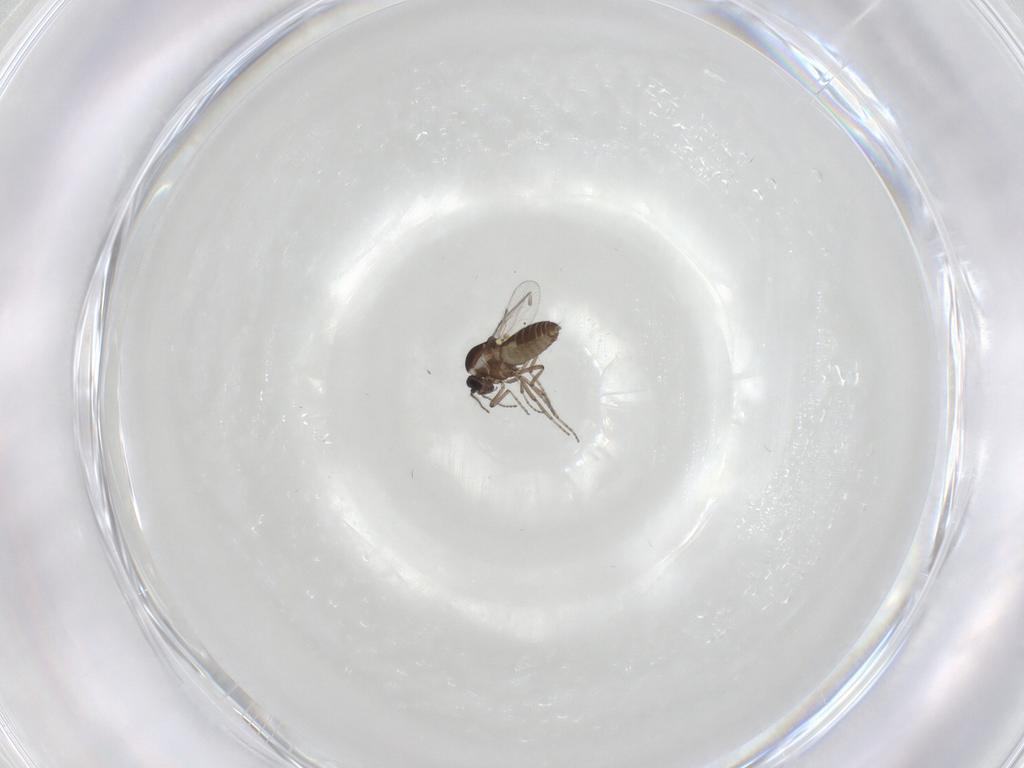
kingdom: Animalia
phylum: Arthropoda
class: Insecta
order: Diptera
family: Ceratopogonidae
